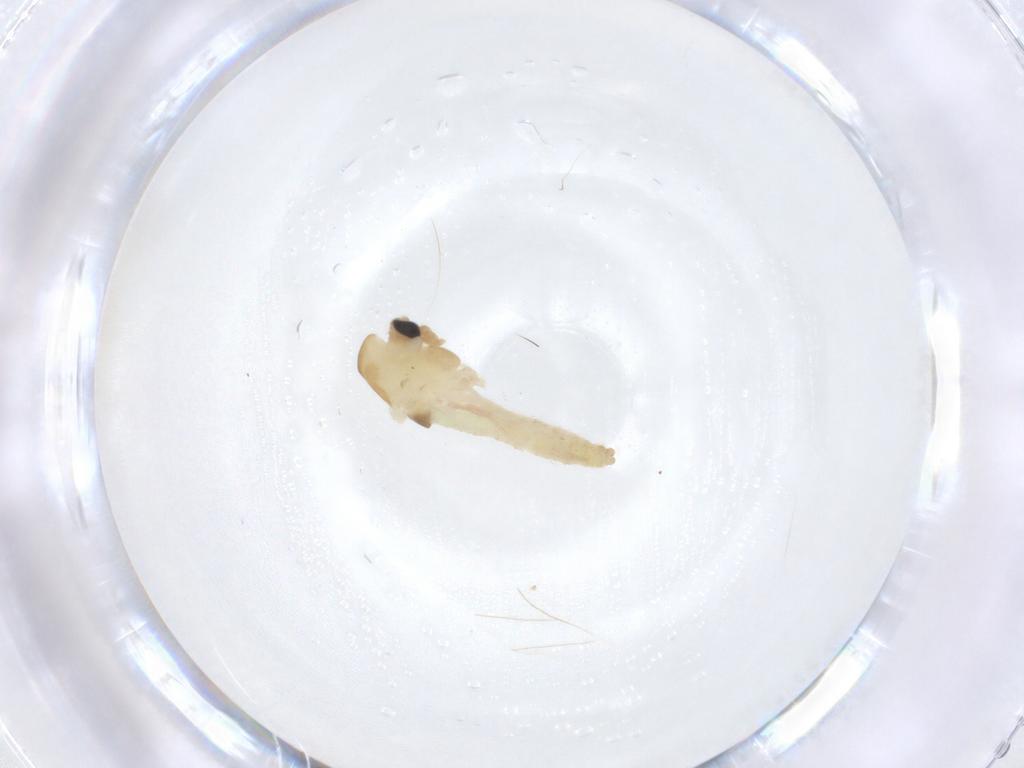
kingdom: Animalia
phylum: Arthropoda
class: Insecta
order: Diptera
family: Chironomidae
